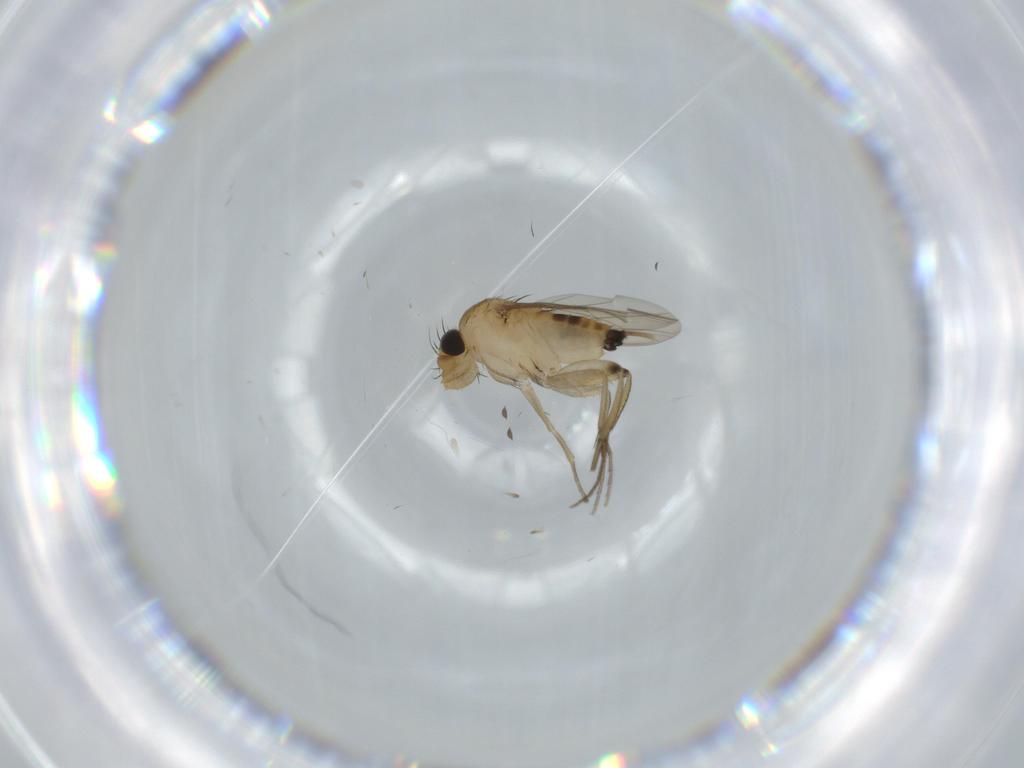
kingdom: Animalia
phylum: Arthropoda
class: Insecta
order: Diptera
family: Phoridae
